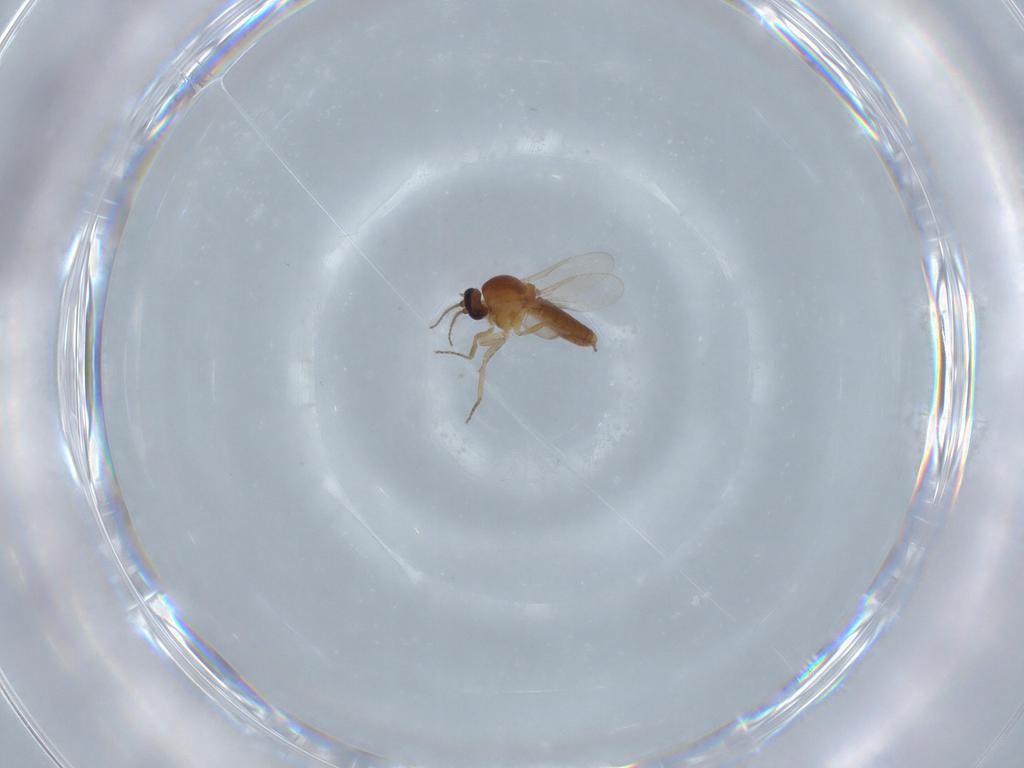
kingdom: Animalia
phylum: Arthropoda
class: Insecta
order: Diptera
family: Ceratopogonidae
